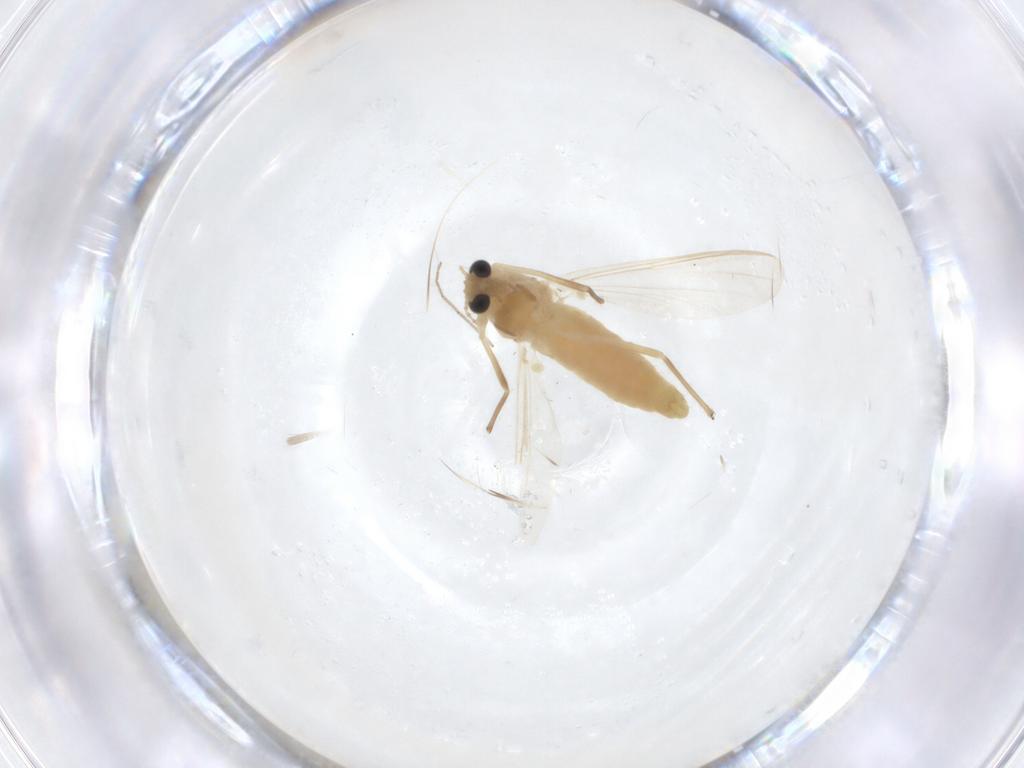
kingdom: Animalia
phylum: Arthropoda
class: Insecta
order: Diptera
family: Chironomidae
